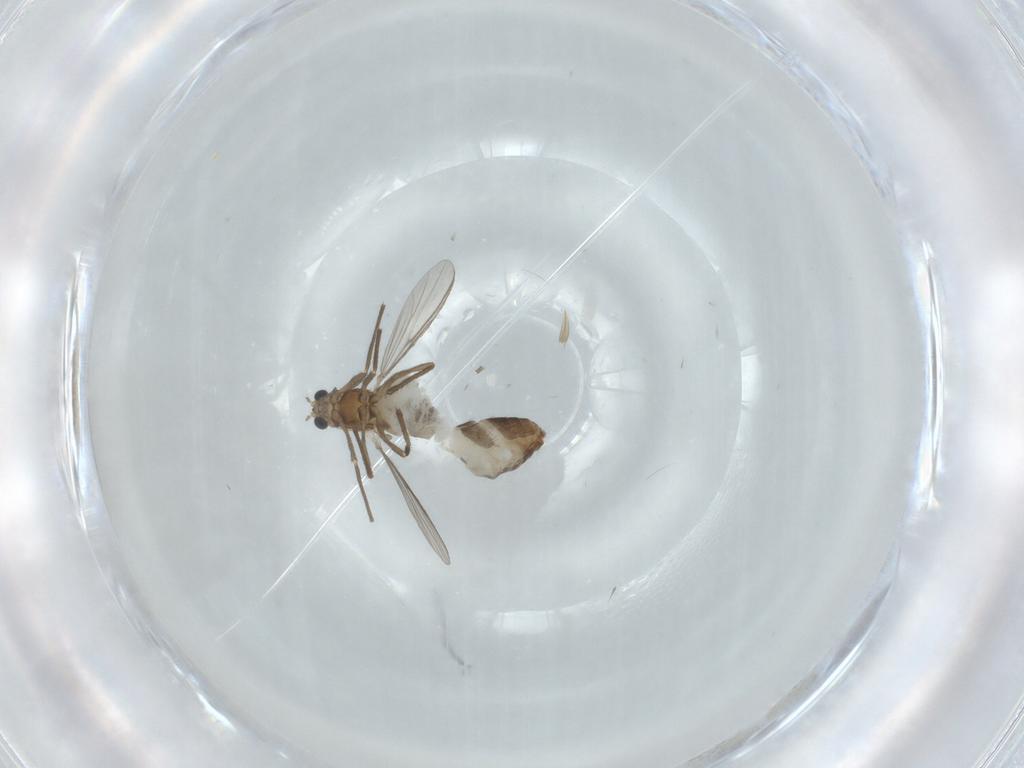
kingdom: Animalia
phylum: Arthropoda
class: Insecta
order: Diptera
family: Chironomidae
